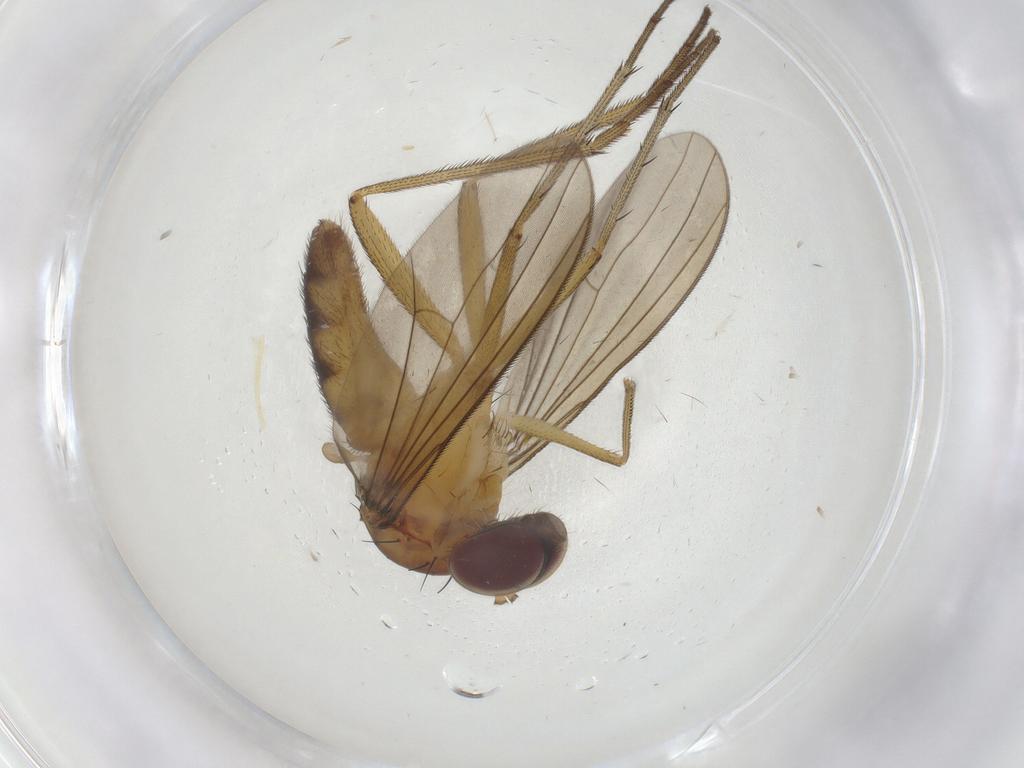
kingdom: Animalia
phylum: Arthropoda
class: Insecta
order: Diptera
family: Dolichopodidae
